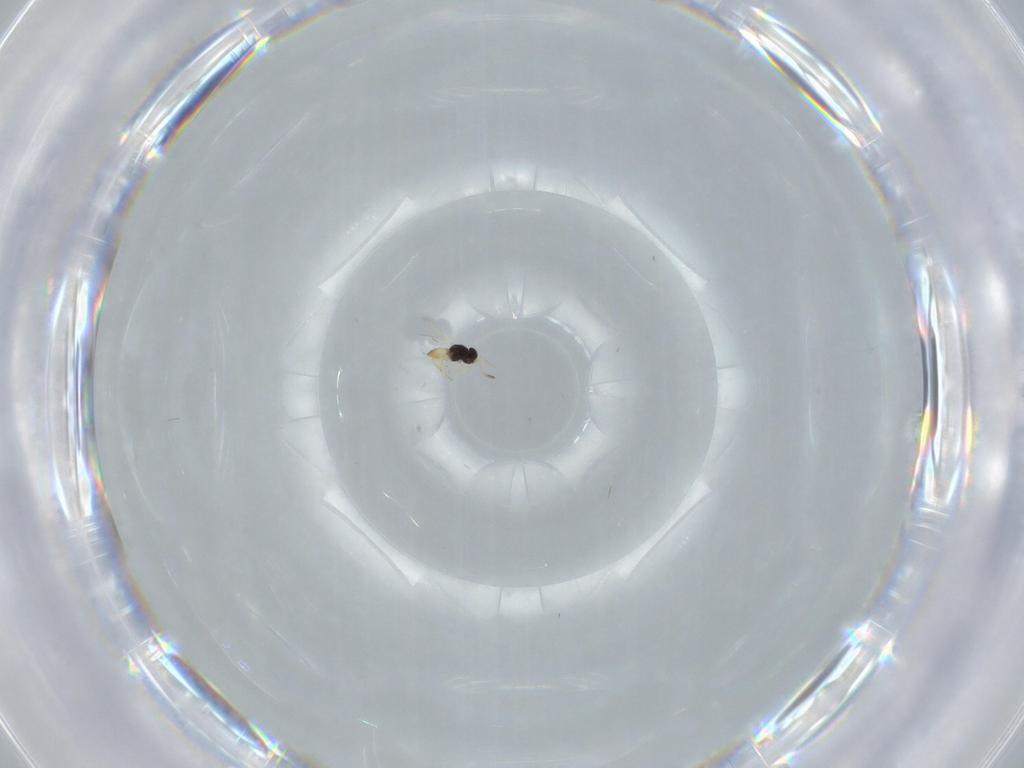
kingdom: Animalia
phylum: Arthropoda
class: Insecta
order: Hymenoptera
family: Scelionidae
